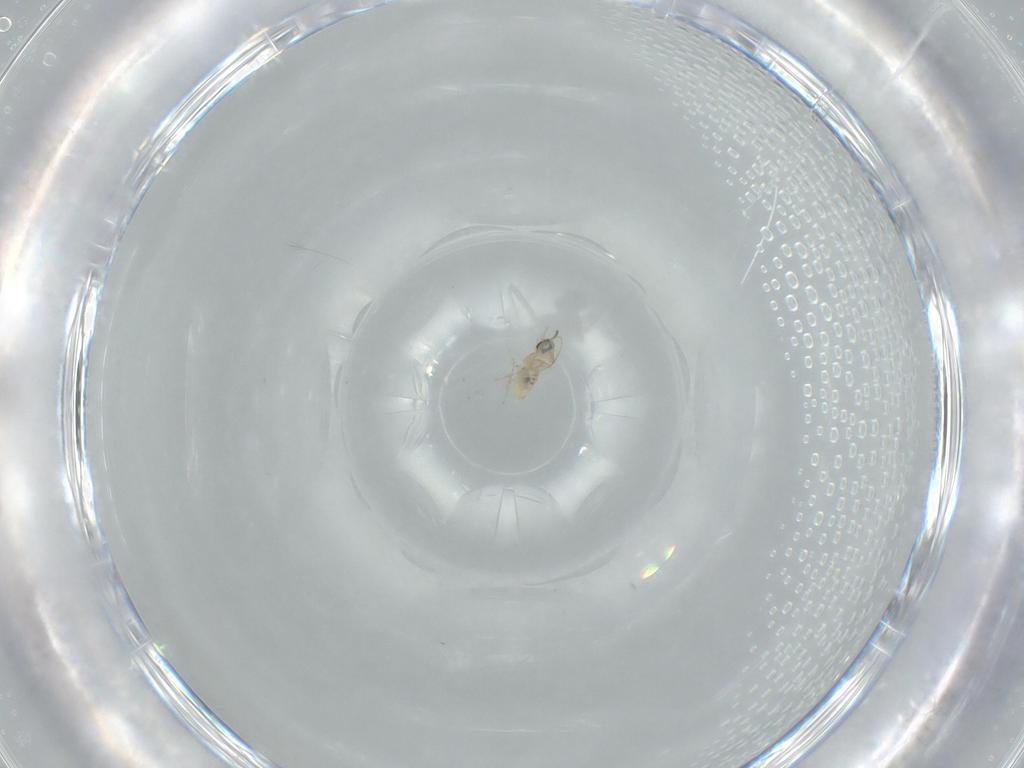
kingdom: Animalia
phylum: Arthropoda
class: Insecta
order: Diptera
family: Cecidomyiidae
